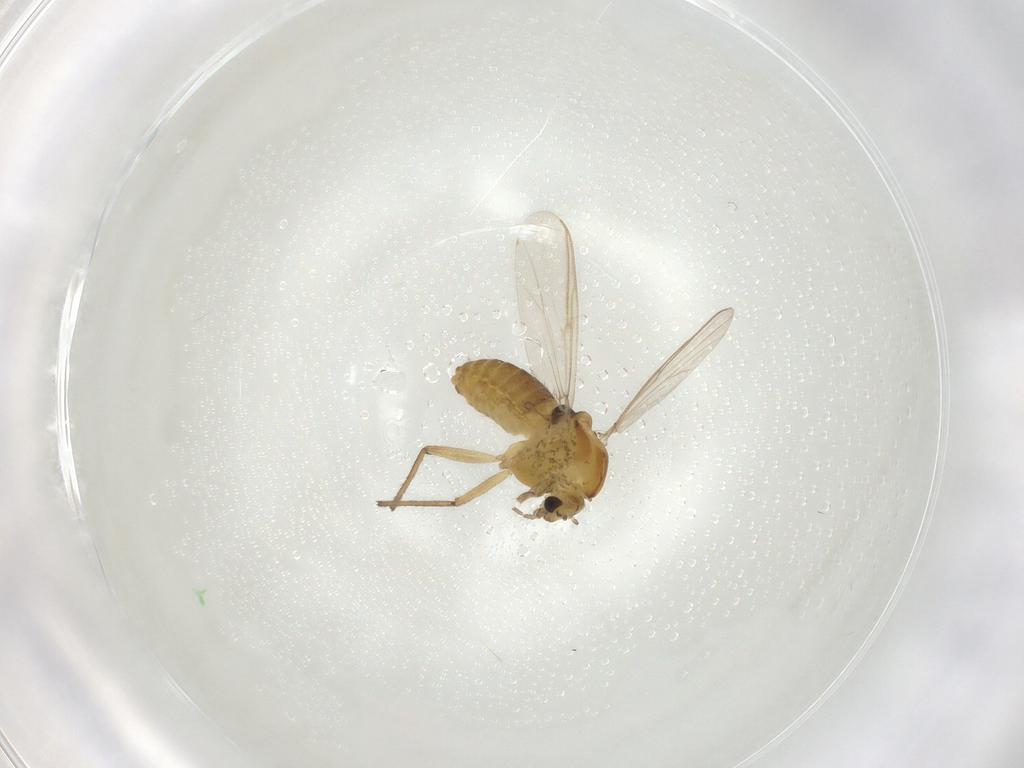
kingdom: Animalia
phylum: Arthropoda
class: Insecta
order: Diptera
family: Chironomidae
